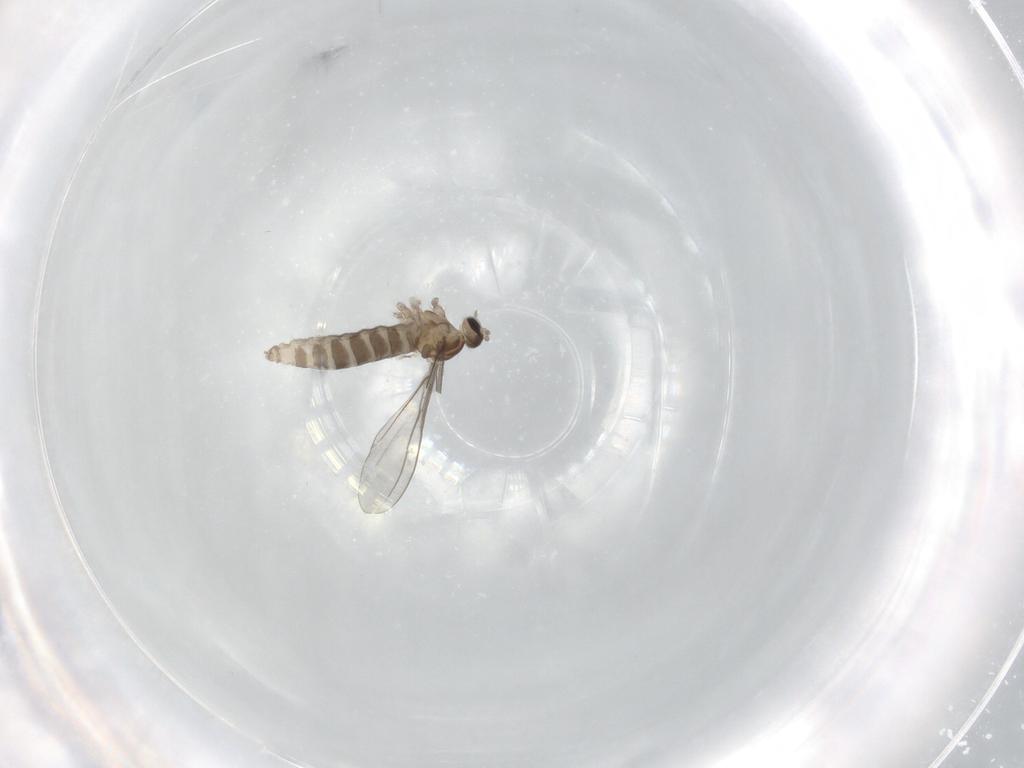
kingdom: Animalia
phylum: Arthropoda
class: Insecta
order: Diptera
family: Cecidomyiidae
